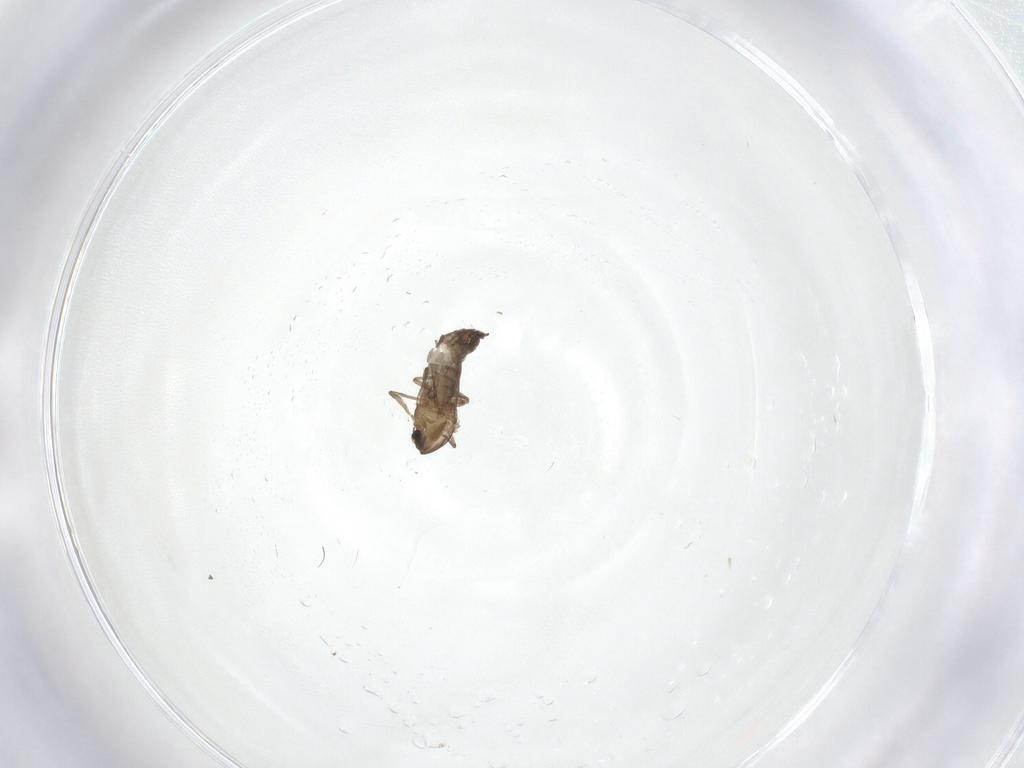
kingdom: Animalia
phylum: Arthropoda
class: Insecta
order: Diptera
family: Chironomidae
